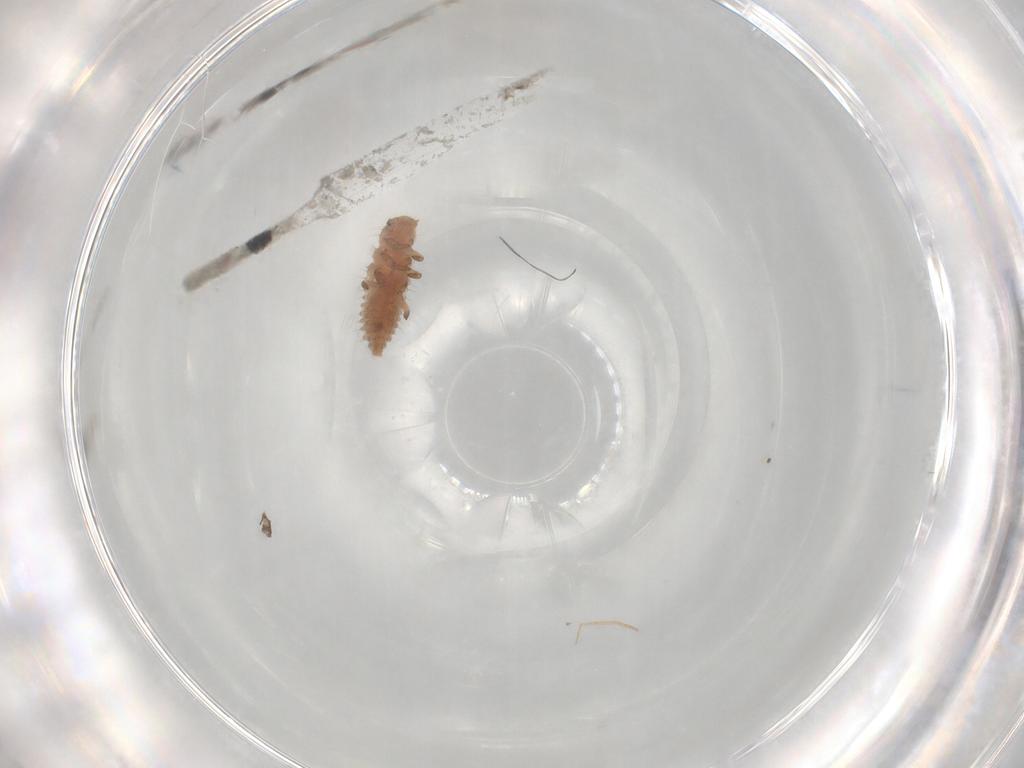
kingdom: Animalia
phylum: Arthropoda
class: Insecta
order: Coleoptera
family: Coccinellidae
